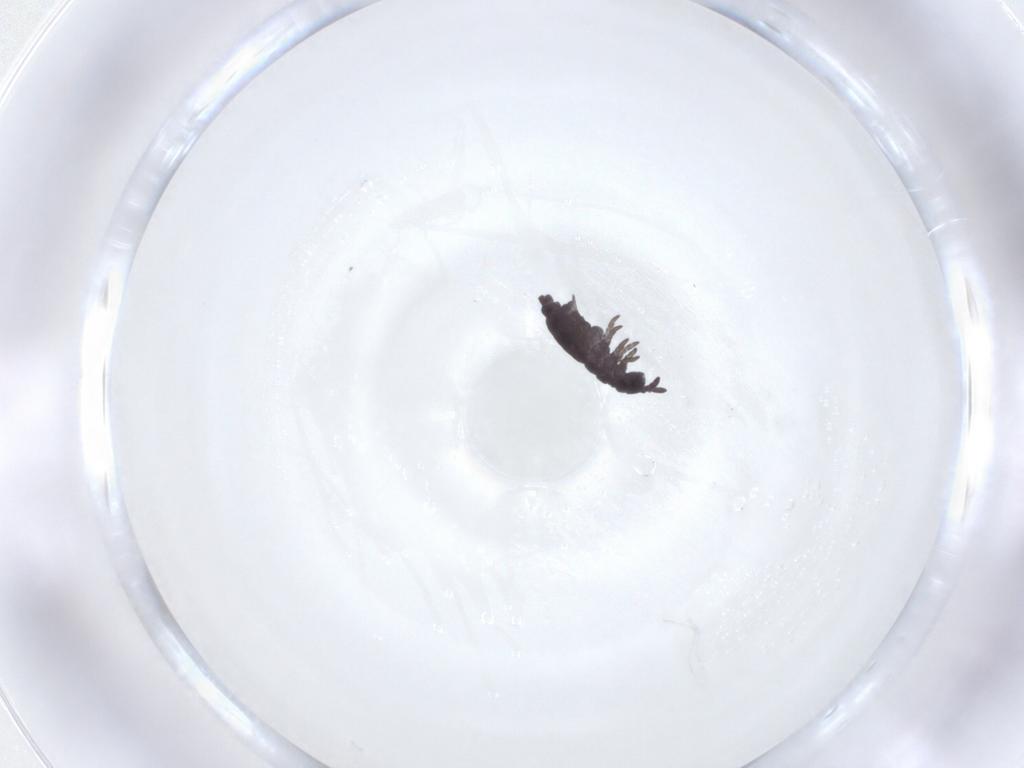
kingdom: Animalia
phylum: Arthropoda
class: Collembola
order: Poduromorpha
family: Hypogastruridae
